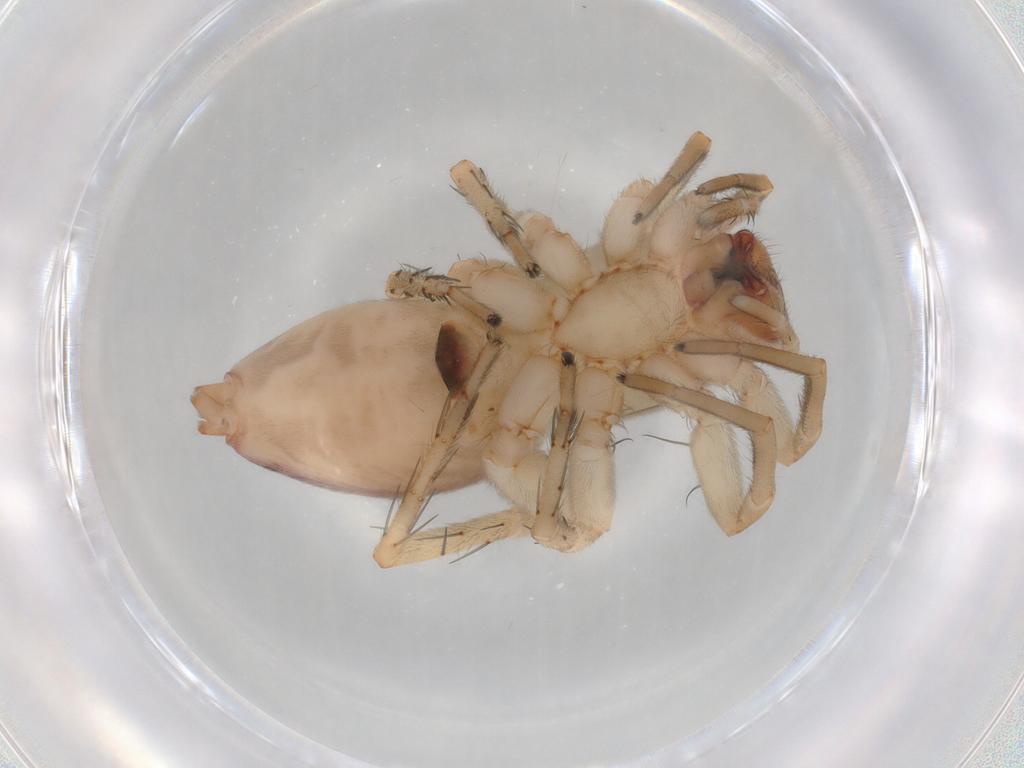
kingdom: Animalia
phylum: Arthropoda
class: Arachnida
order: Araneae
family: Clubionidae
